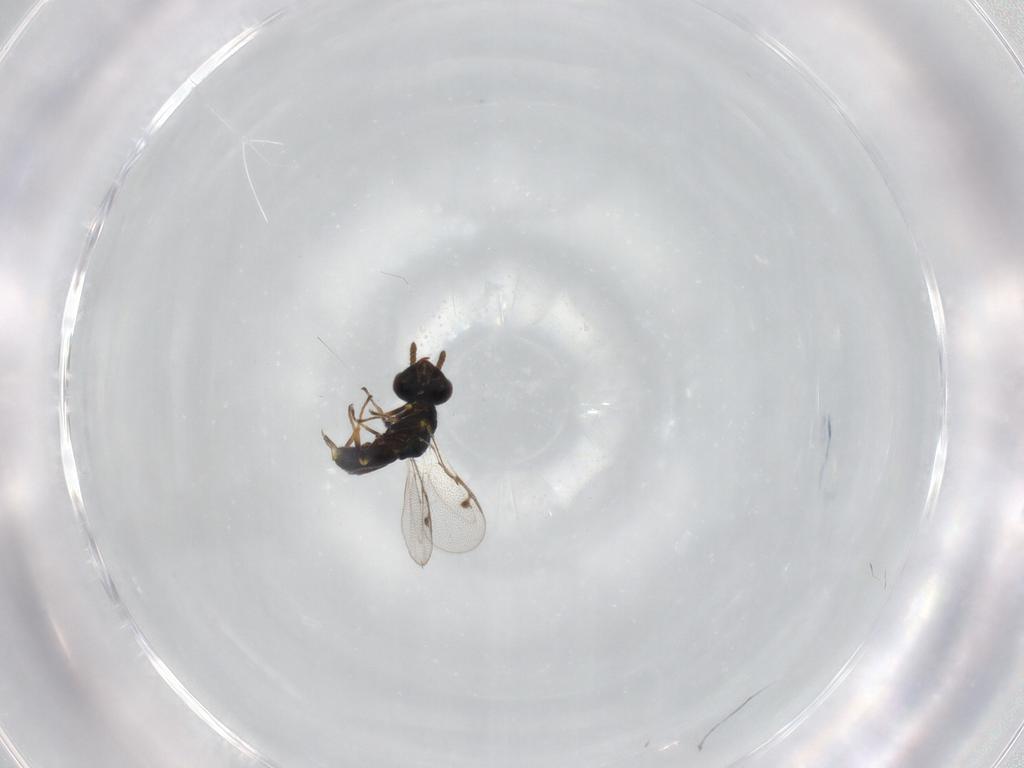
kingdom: Animalia
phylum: Arthropoda
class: Insecta
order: Hymenoptera
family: Pirenidae
